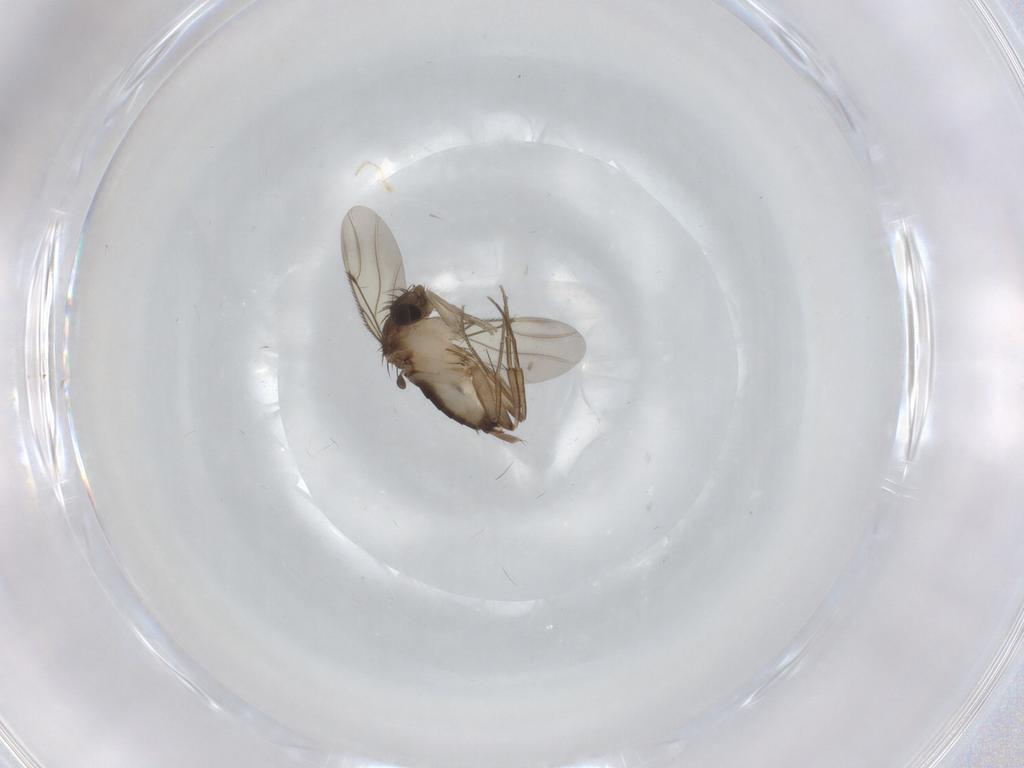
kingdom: Animalia
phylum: Arthropoda
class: Insecta
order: Diptera
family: Phoridae
